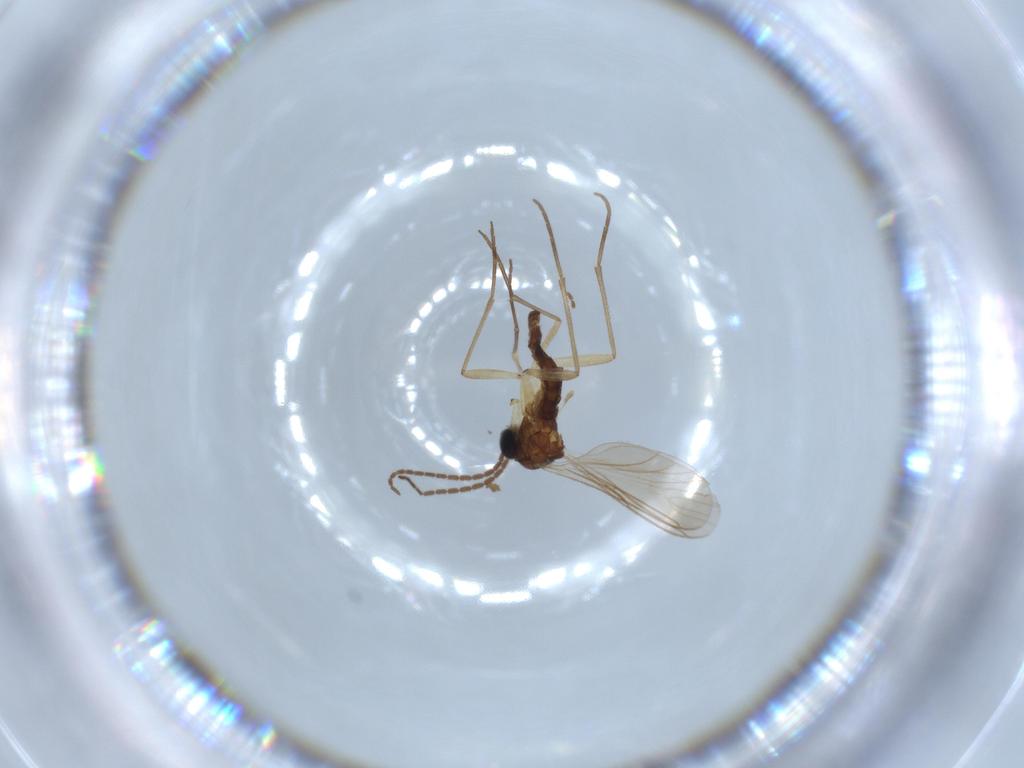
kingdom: Animalia
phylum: Arthropoda
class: Insecta
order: Diptera
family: Sciaridae
